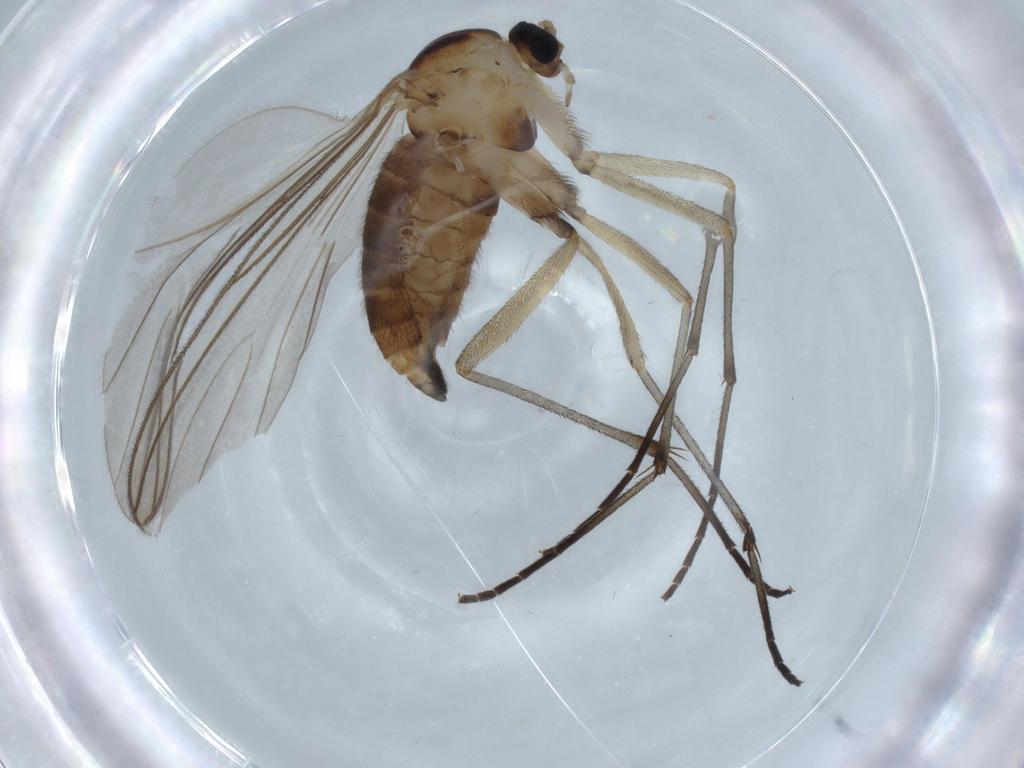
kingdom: Animalia
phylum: Arthropoda
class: Insecta
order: Diptera
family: Sciaridae
